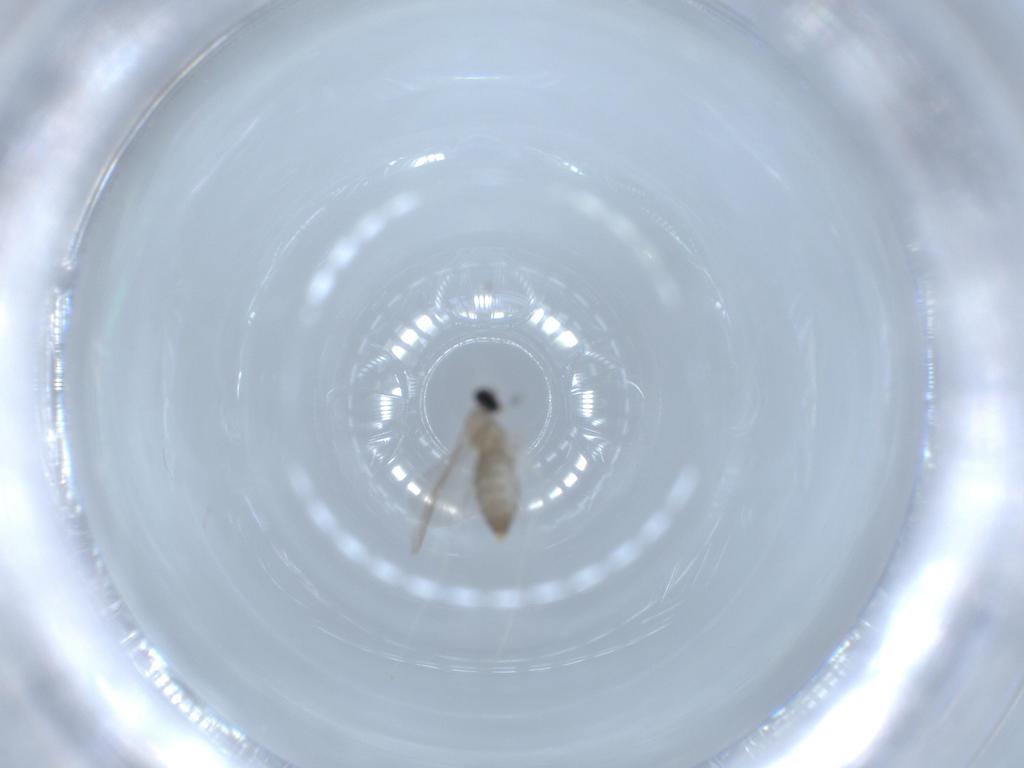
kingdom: Animalia
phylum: Arthropoda
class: Insecta
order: Diptera
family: Cecidomyiidae
